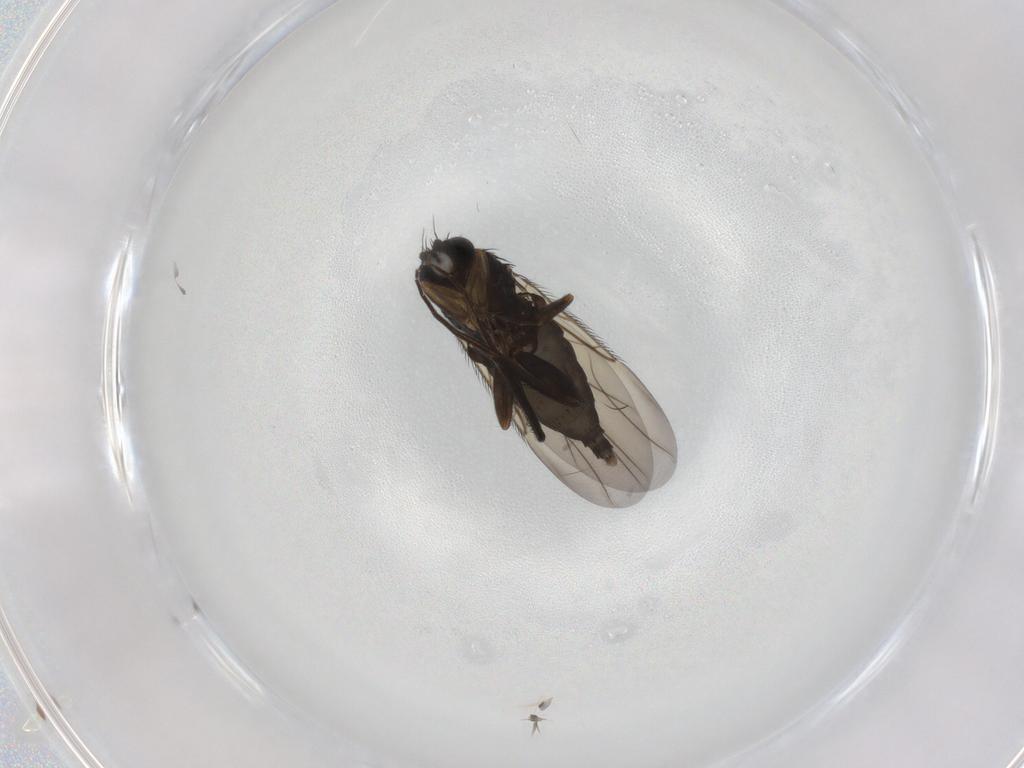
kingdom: Animalia
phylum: Arthropoda
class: Insecta
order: Diptera
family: Phoridae
